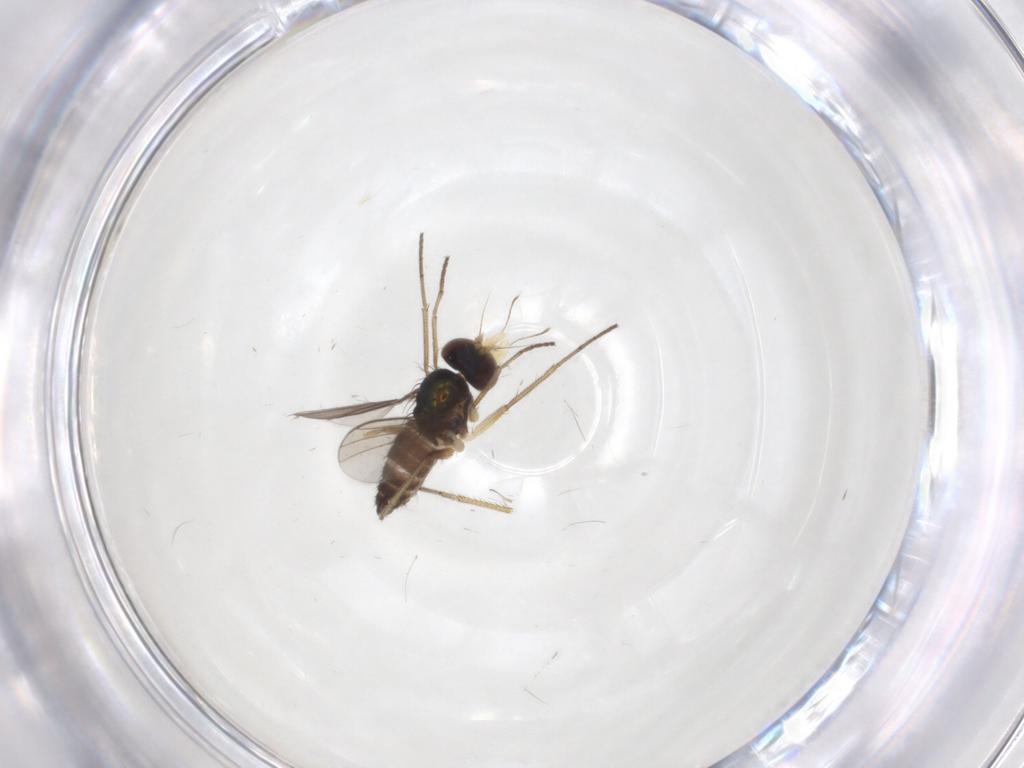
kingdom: Animalia
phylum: Arthropoda
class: Insecta
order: Diptera
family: Dolichopodidae
